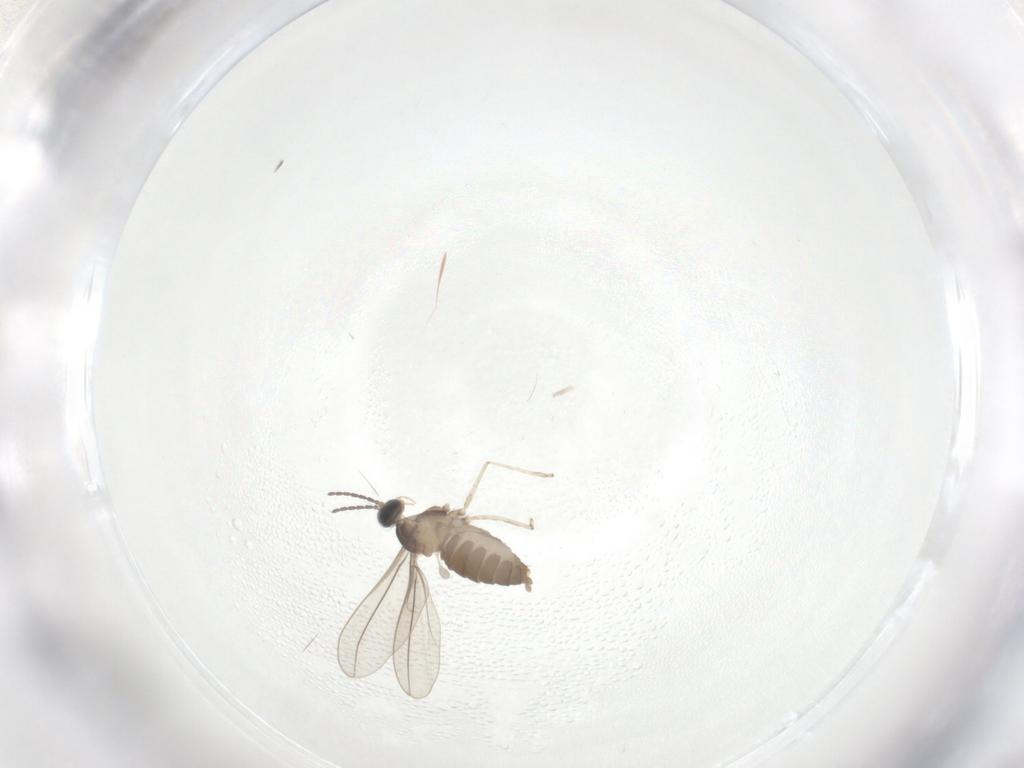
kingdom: Animalia
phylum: Arthropoda
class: Insecta
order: Diptera
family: Cecidomyiidae
